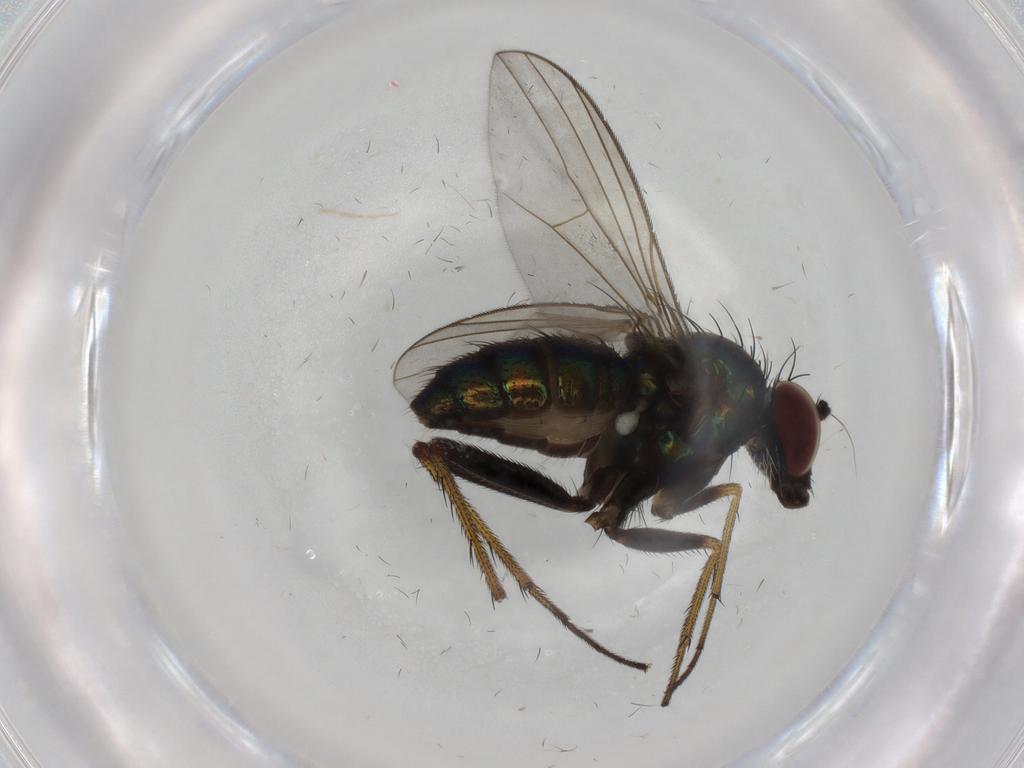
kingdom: Animalia
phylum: Arthropoda
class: Insecta
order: Diptera
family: Dolichopodidae
